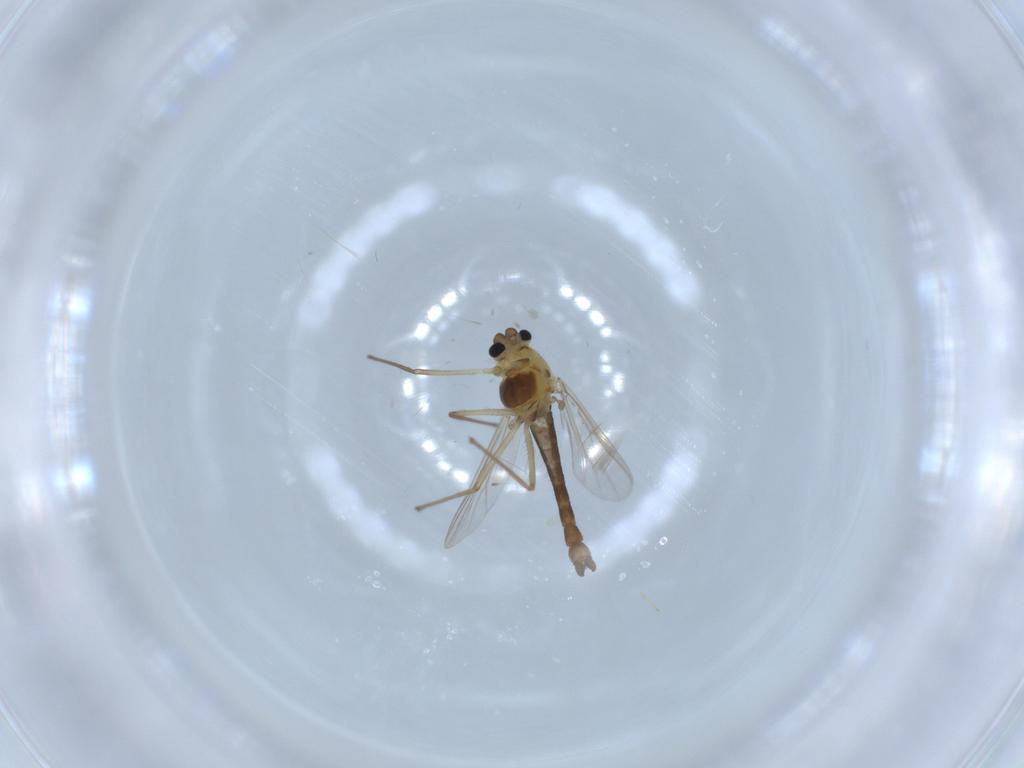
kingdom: Animalia
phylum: Arthropoda
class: Insecta
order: Diptera
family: Chironomidae
